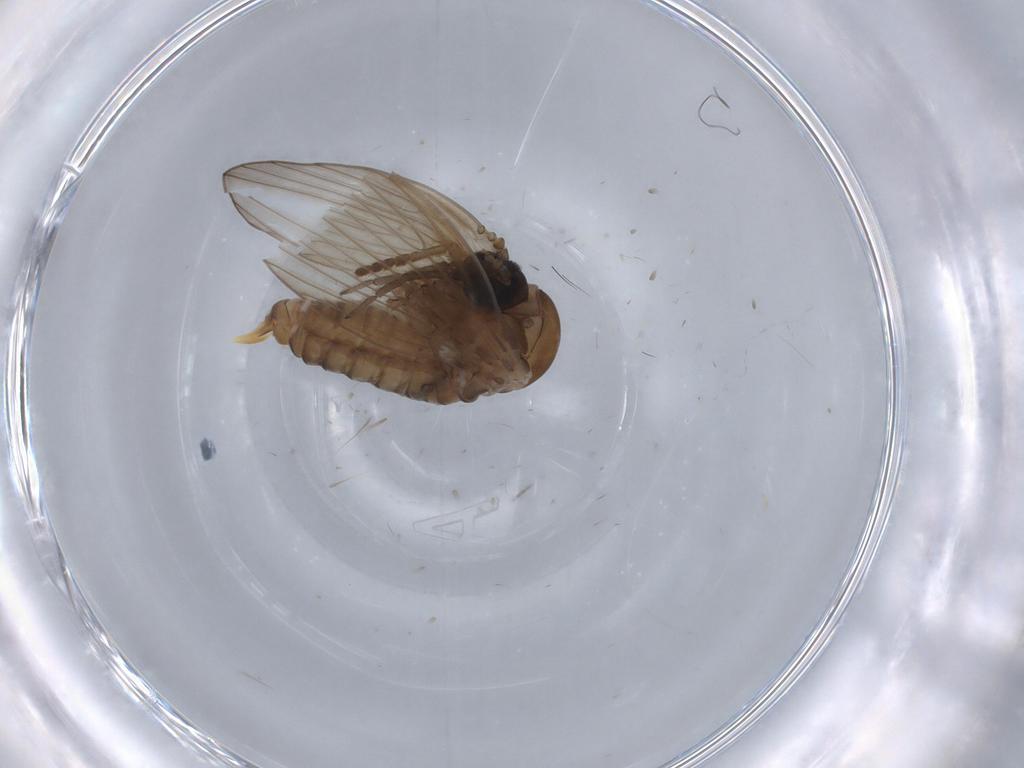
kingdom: Animalia
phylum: Arthropoda
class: Insecta
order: Diptera
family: Psychodidae
